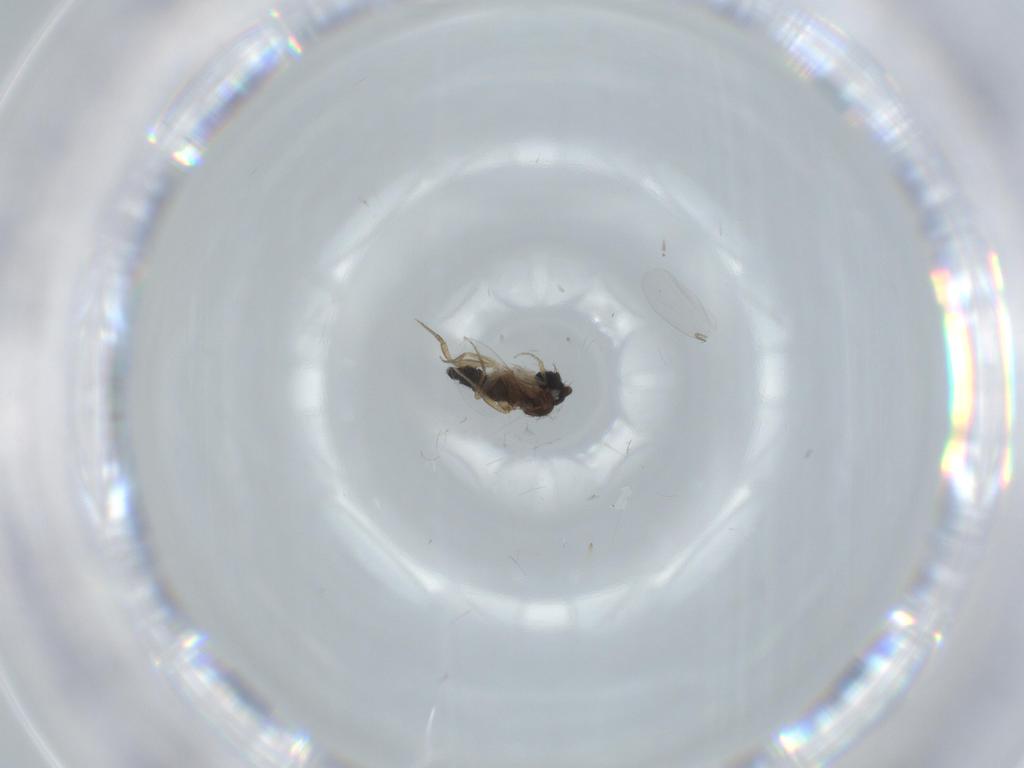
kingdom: Animalia
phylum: Arthropoda
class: Insecta
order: Diptera
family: Phoridae
